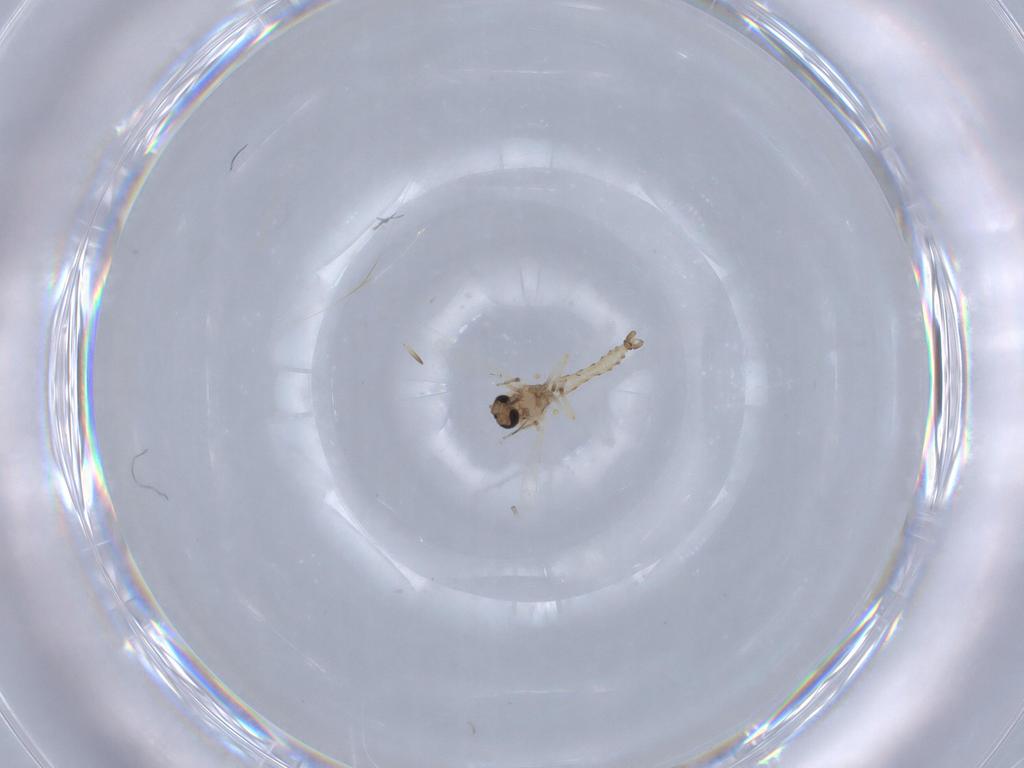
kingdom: Animalia
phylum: Arthropoda
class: Insecta
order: Diptera
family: Ceratopogonidae
